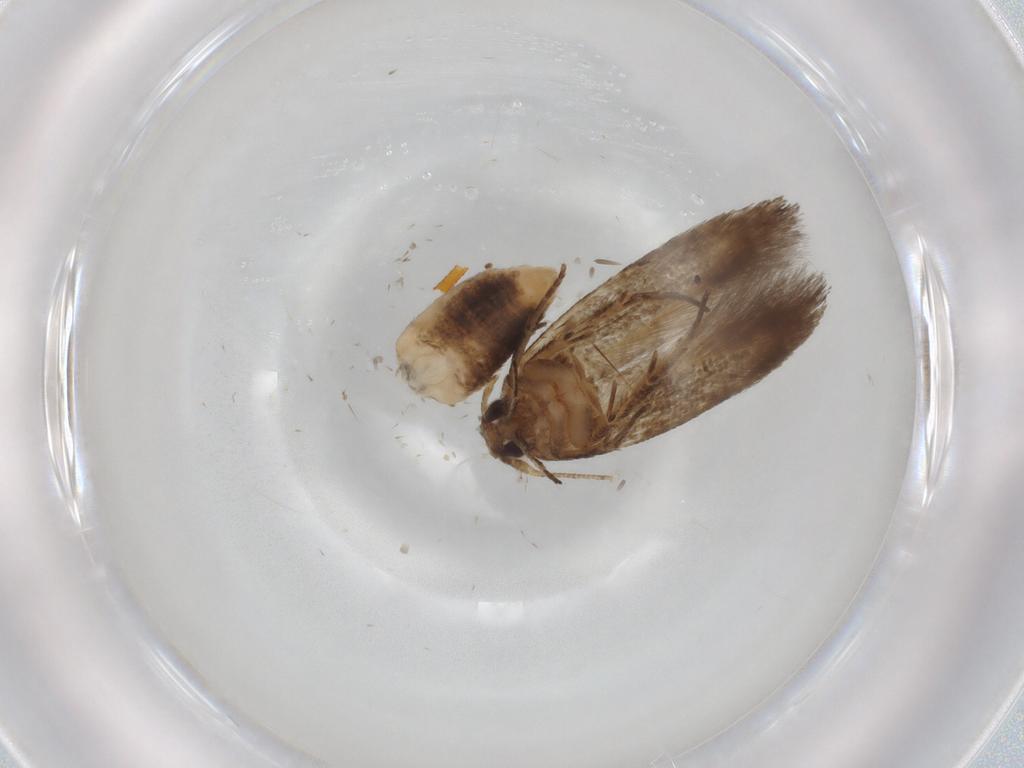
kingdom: Animalia
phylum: Arthropoda
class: Insecta
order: Lepidoptera
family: Cosmopterigidae
